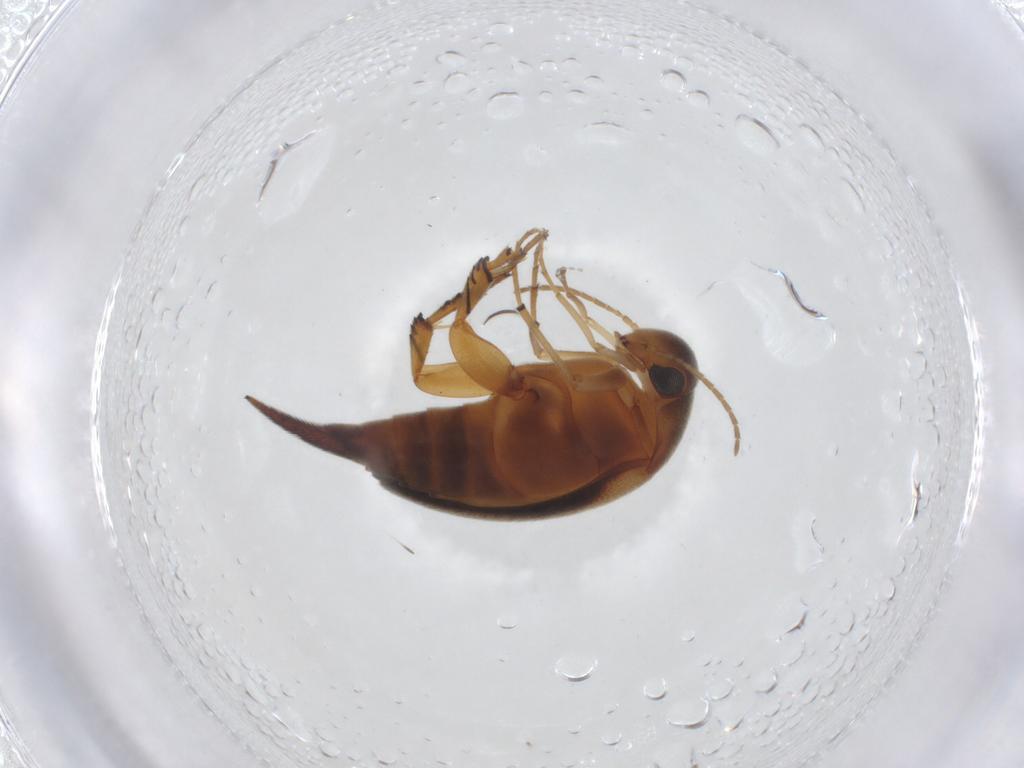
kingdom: Animalia
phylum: Arthropoda
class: Insecta
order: Coleoptera
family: Mordellidae
